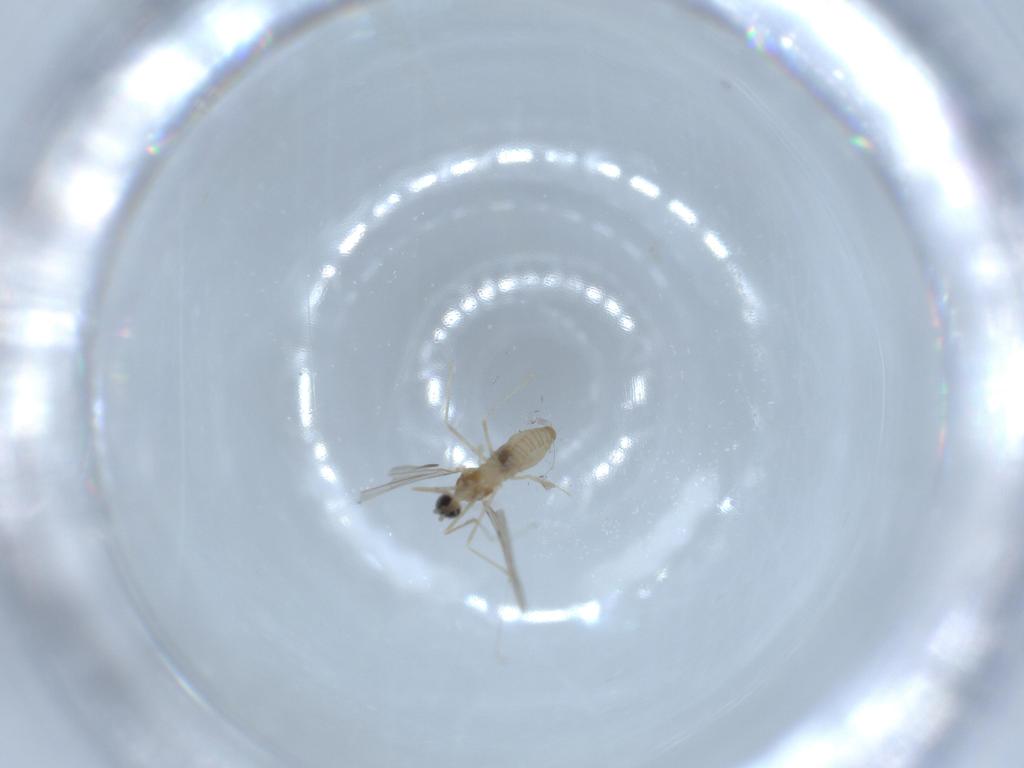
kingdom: Animalia
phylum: Arthropoda
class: Insecta
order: Diptera
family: Cecidomyiidae
